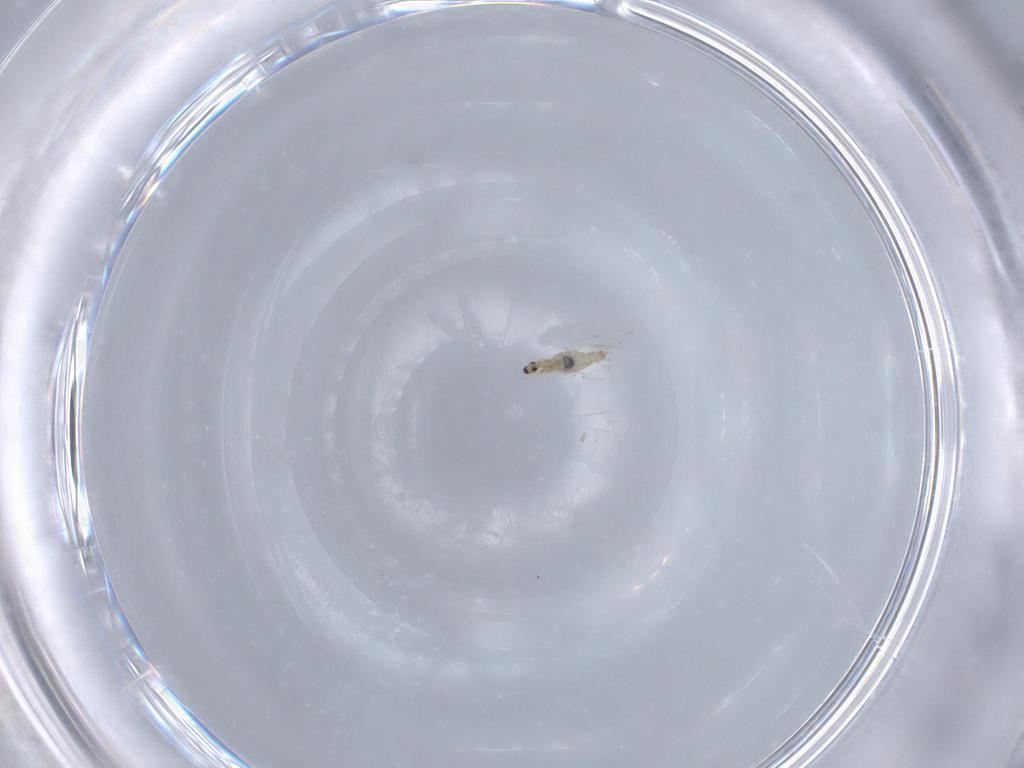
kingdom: Animalia
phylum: Arthropoda
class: Insecta
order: Diptera
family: Cecidomyiidae
